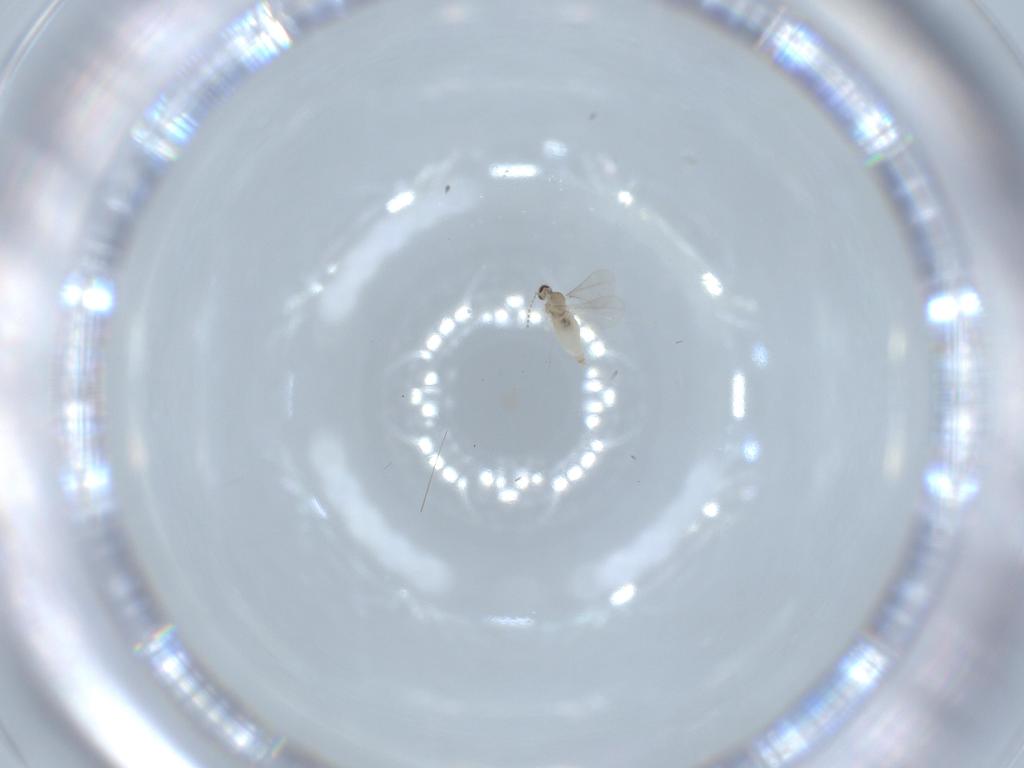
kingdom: Animalia
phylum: Arthropoda
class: Insecta
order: Diptera
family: Cecidomyiidae
